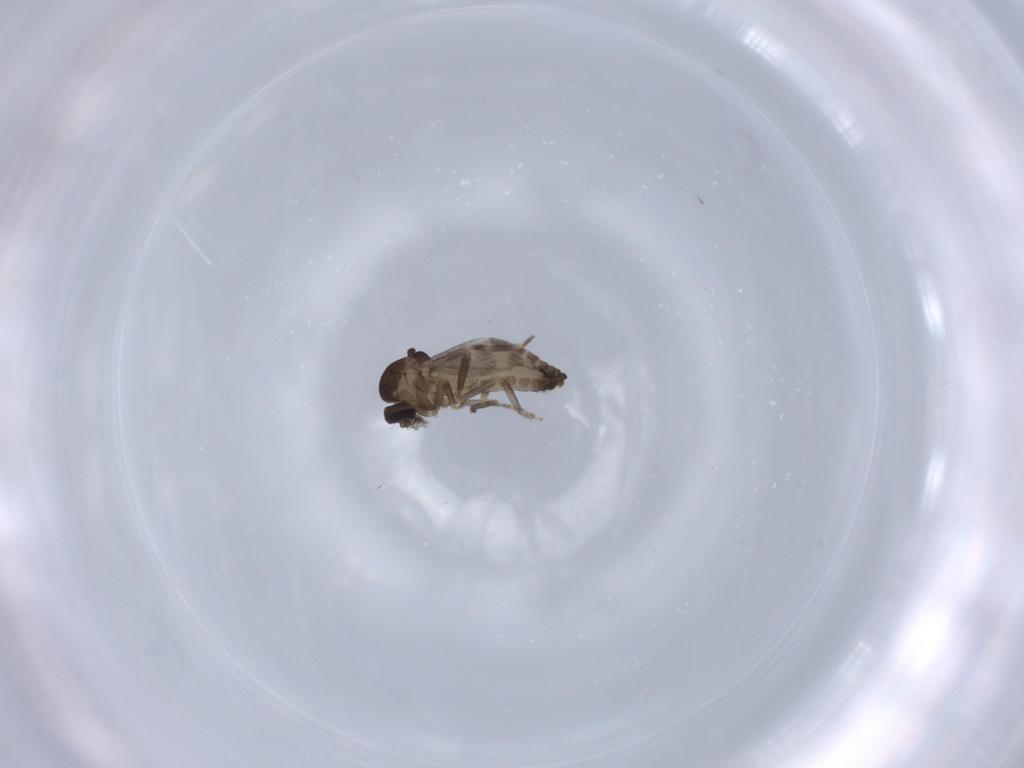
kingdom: Animalia
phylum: Arthropoda
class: Insecta
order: Diptera
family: Ceratopogonidae
